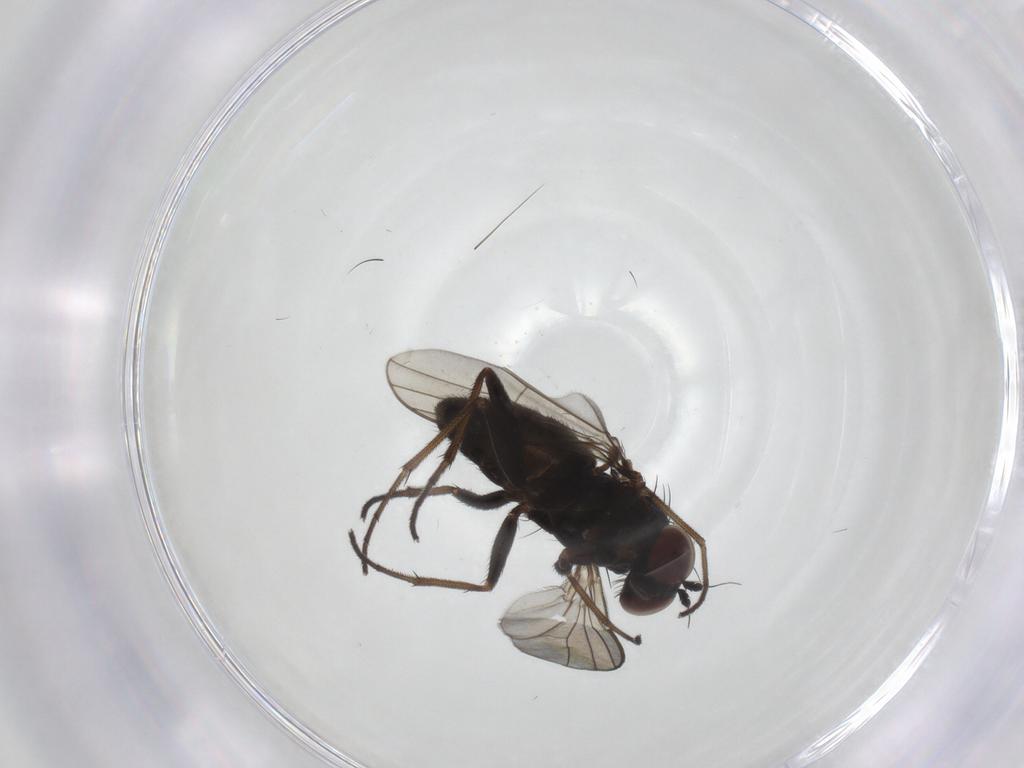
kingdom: Animalia
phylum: Arthropoda
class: Insecta
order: Diptera
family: Dolichopodidae
